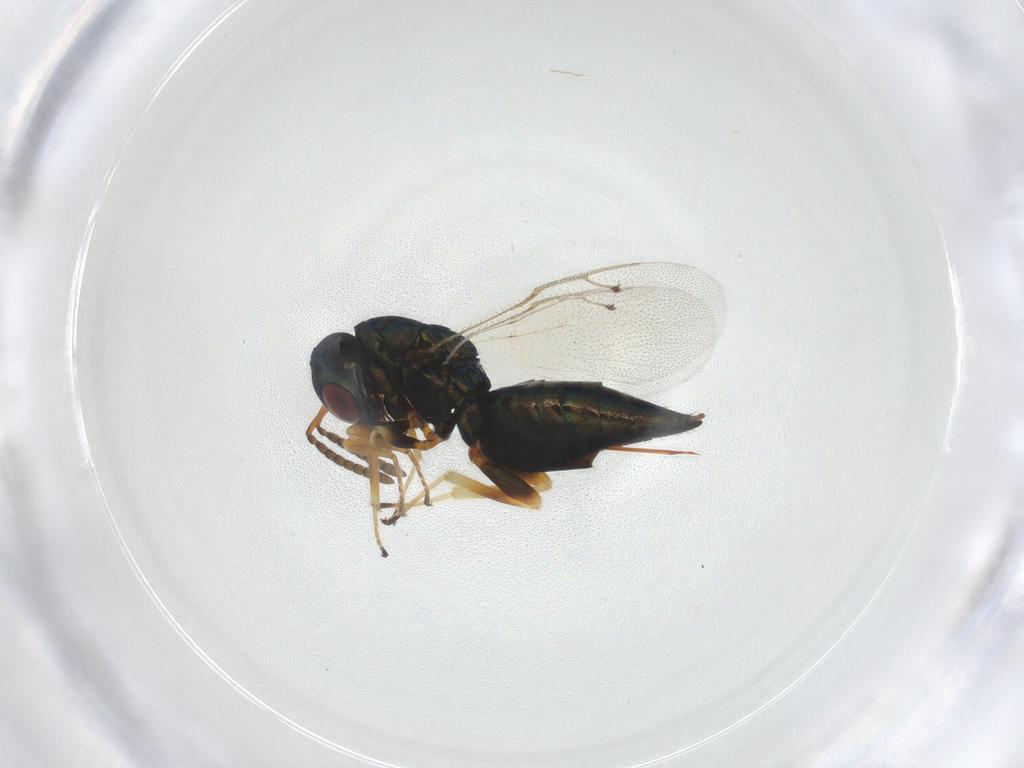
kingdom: Animalia
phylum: Arthropoda
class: Insecta
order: Hymenoptera
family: Pteromalidae
